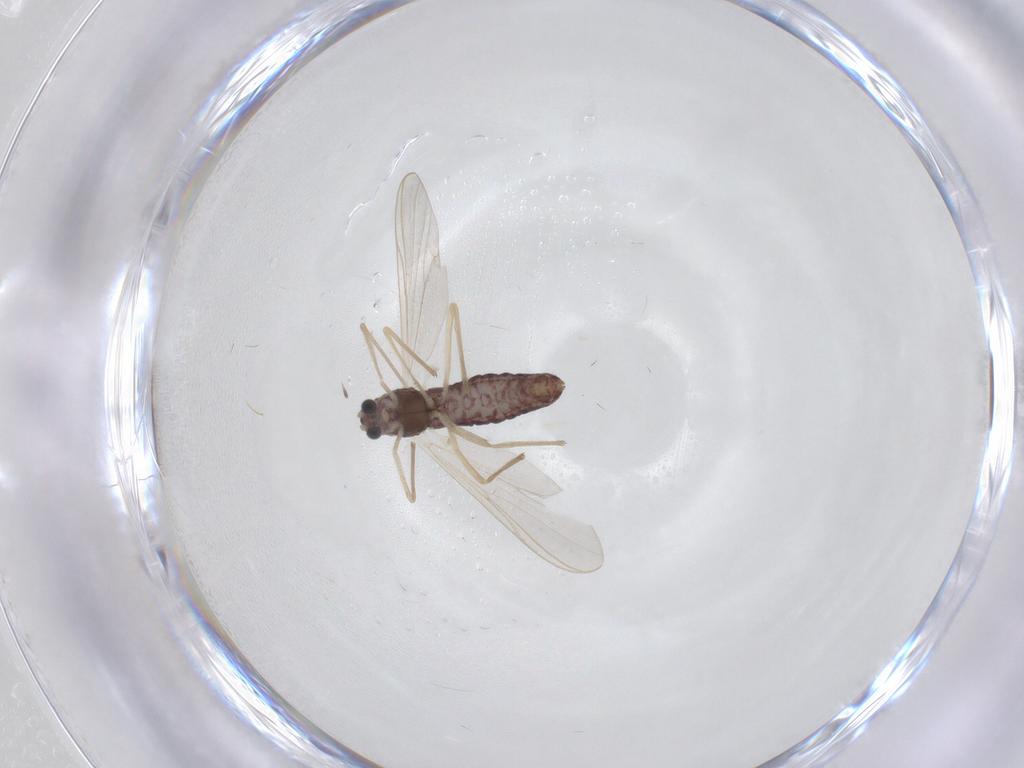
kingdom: Animalia
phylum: Arthropoda
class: Insecta
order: Diptera
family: Chironomidae
